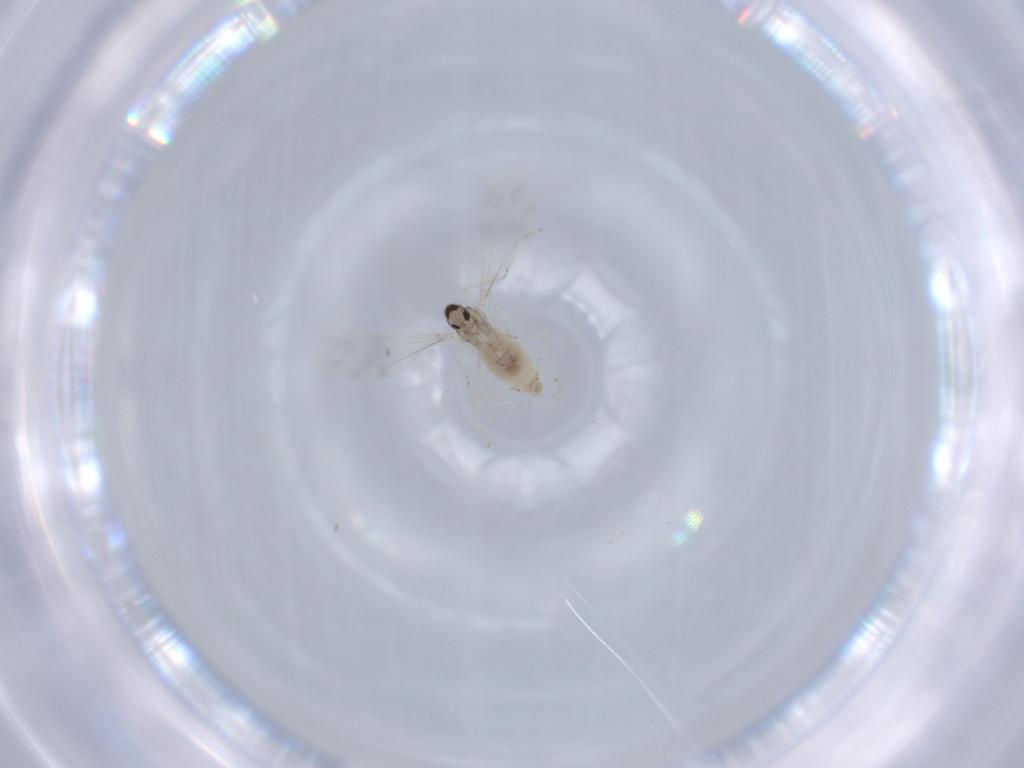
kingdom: Animalia
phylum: Arthropoda
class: Insecta
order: Diptera
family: Cecidomyiidae
